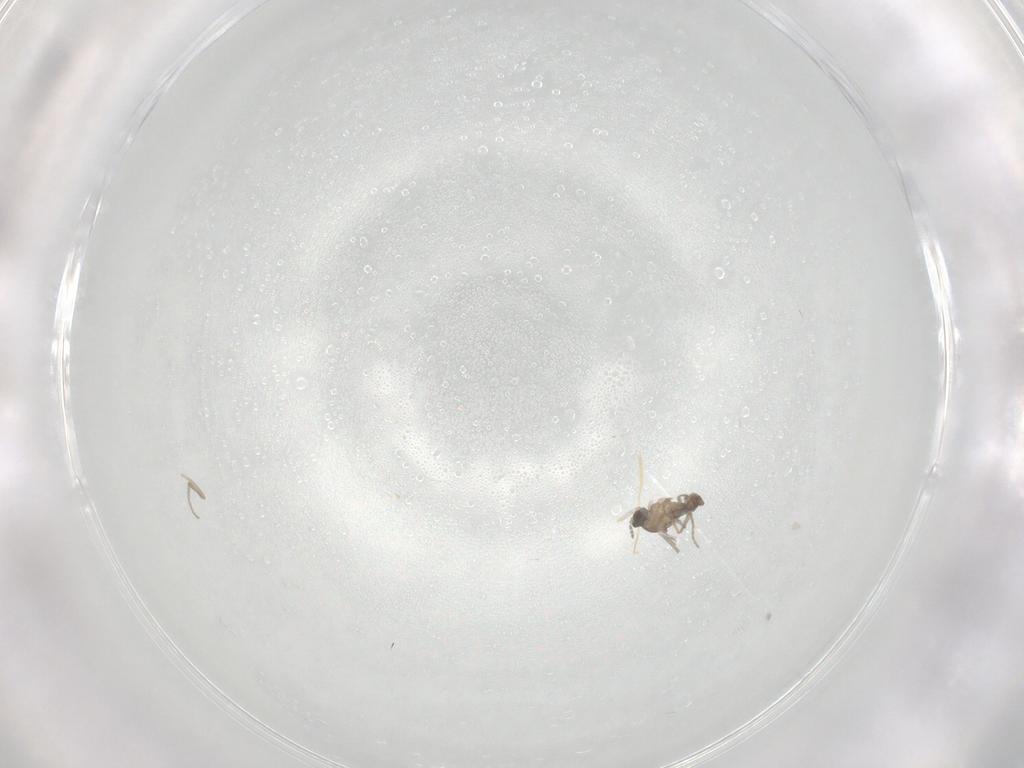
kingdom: Animalia
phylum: Arthropoda
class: Insecta
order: Diptera
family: Cecidomyiidae
